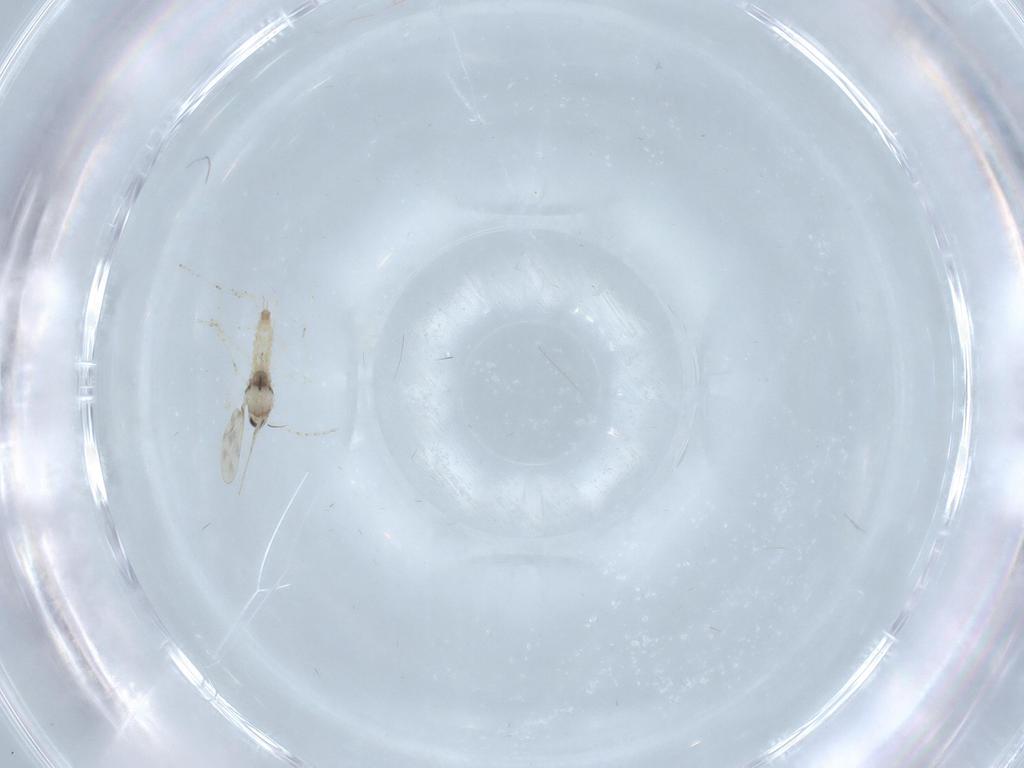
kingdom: Animalia
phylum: Arthropoda
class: Insecta
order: Diptera
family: Cecidomyiidae
